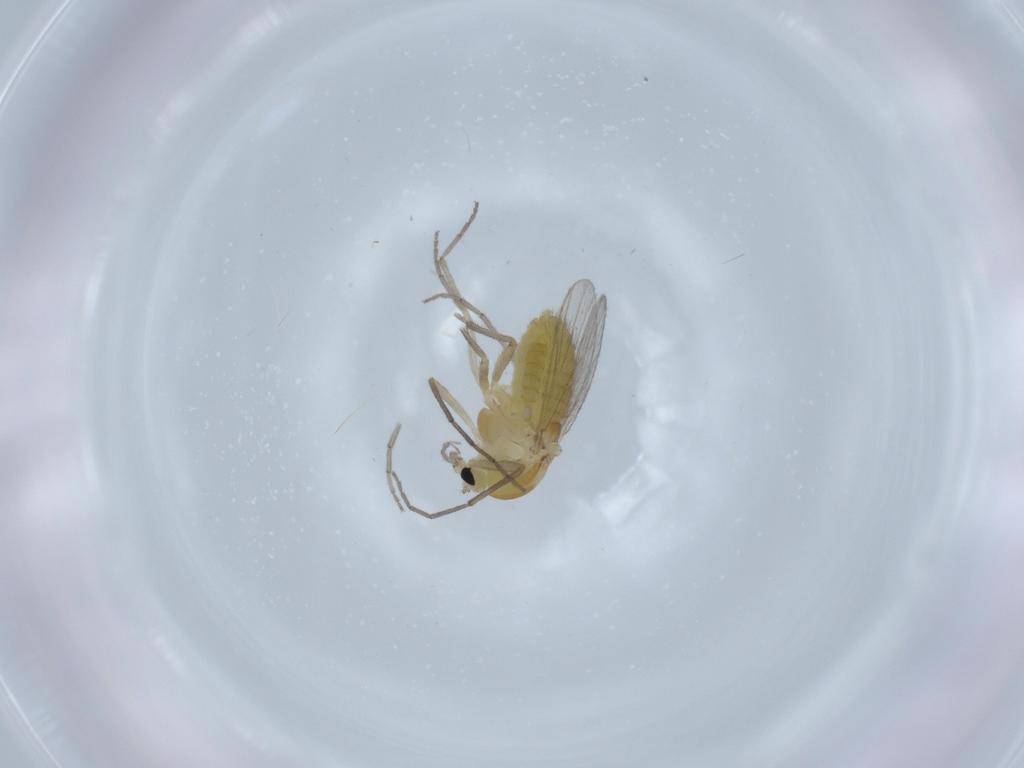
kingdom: Animalia
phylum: Arthropoda
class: Insecta
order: Diptera
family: Chironomidae
